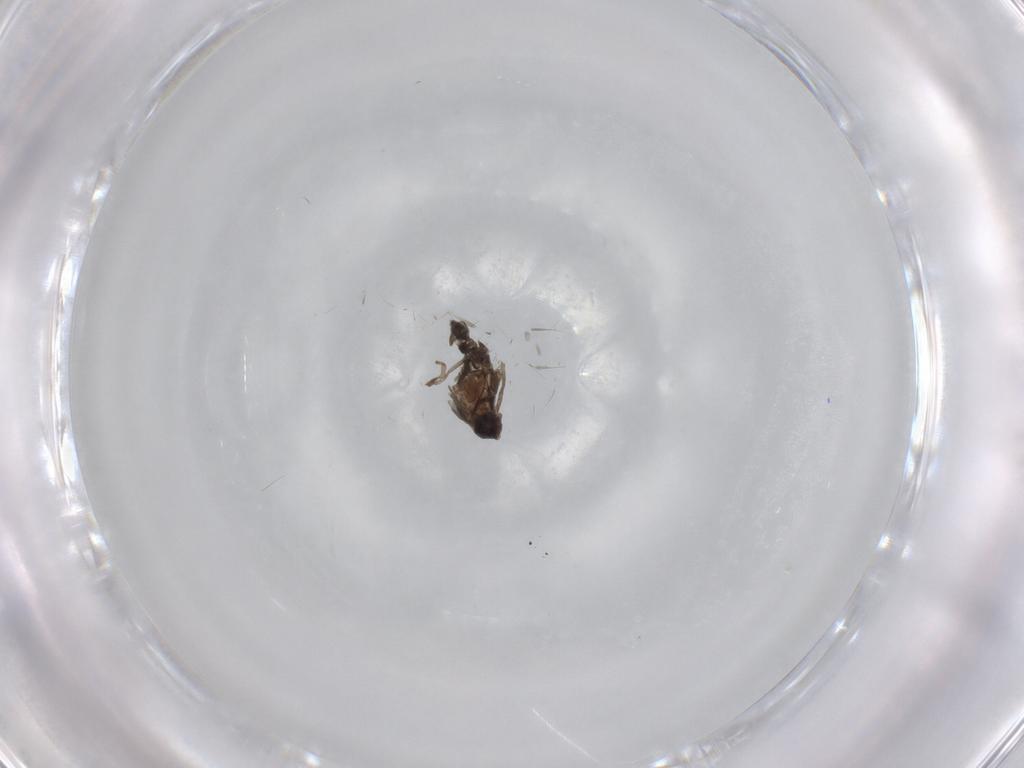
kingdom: Animalia
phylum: Arthropoda
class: Insecta
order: Diptera
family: Cecidomyiidae
